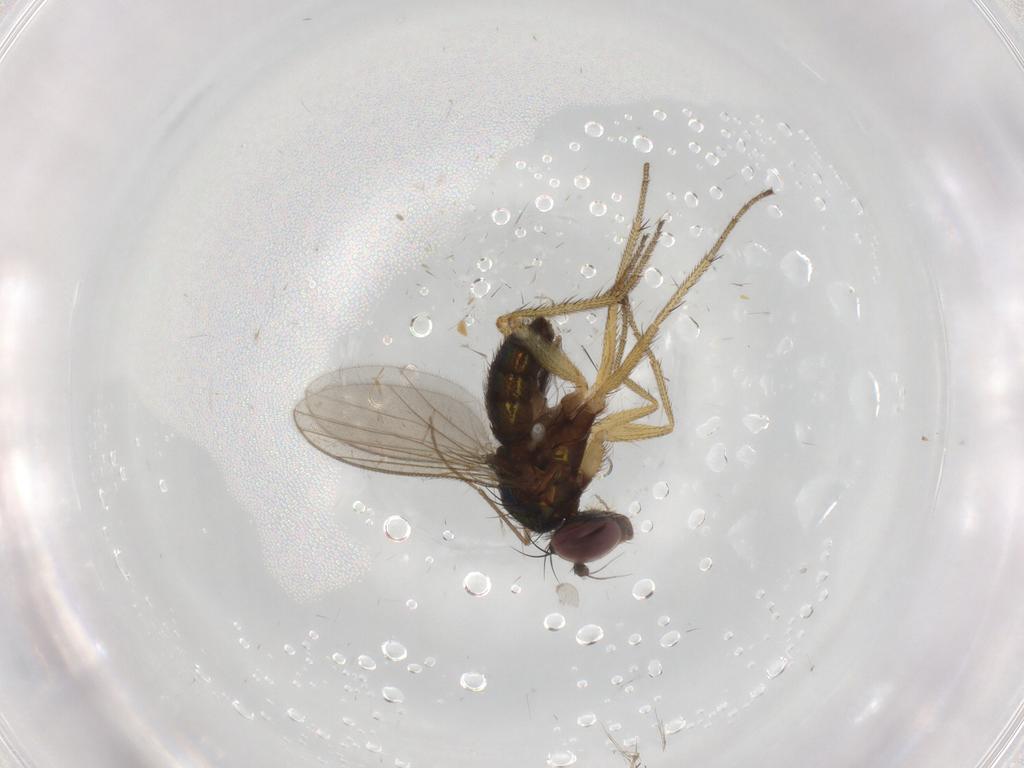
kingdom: Animalia
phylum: Arthropoda
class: Insecta
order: Diptera
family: Chironomidae
